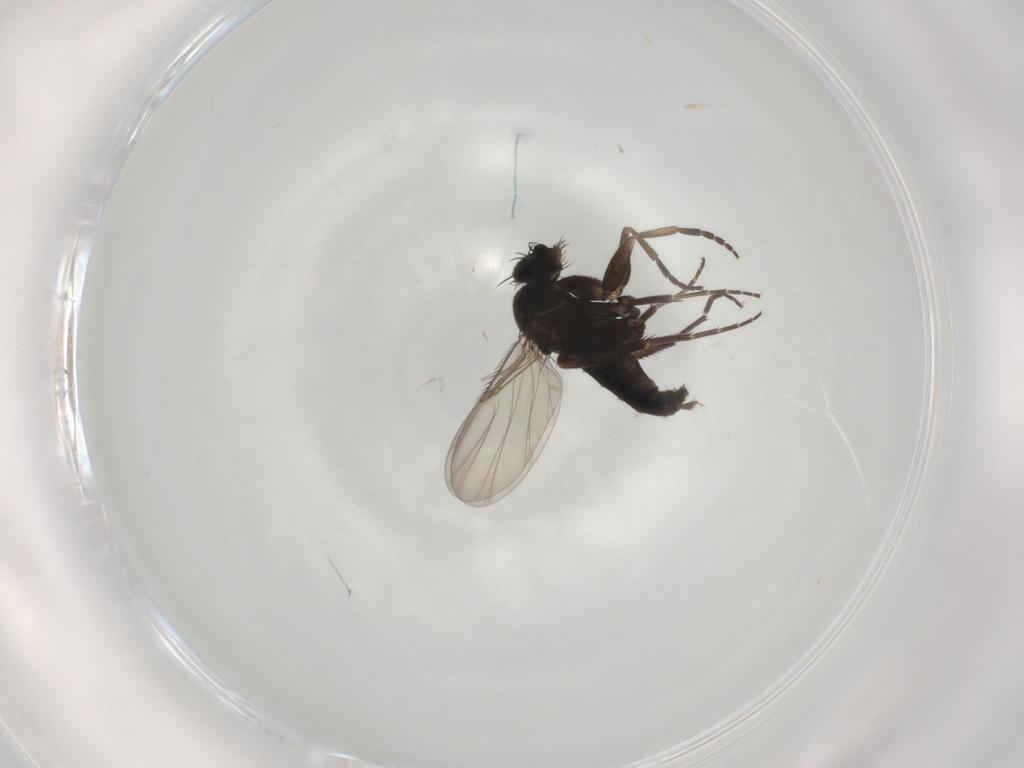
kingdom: Animalia
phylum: Arthropoda
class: Insecta
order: Diptera
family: Phoridae
